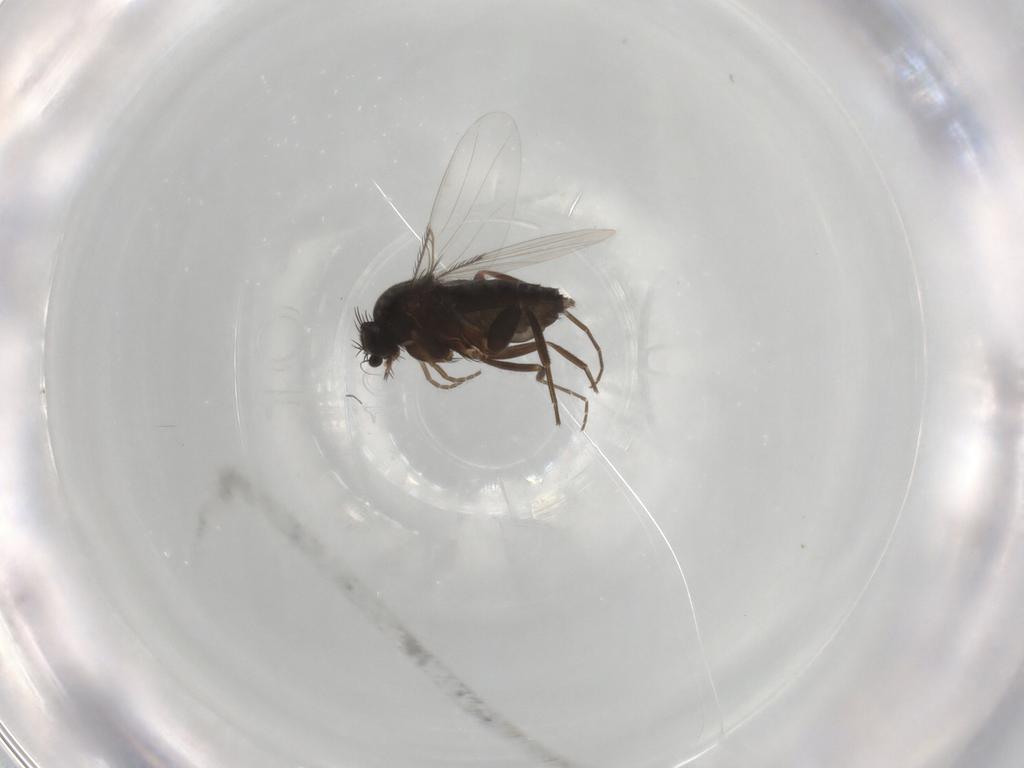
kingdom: Animalia
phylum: Arthropoda
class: Insecta
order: Diptera
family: Phoridae
